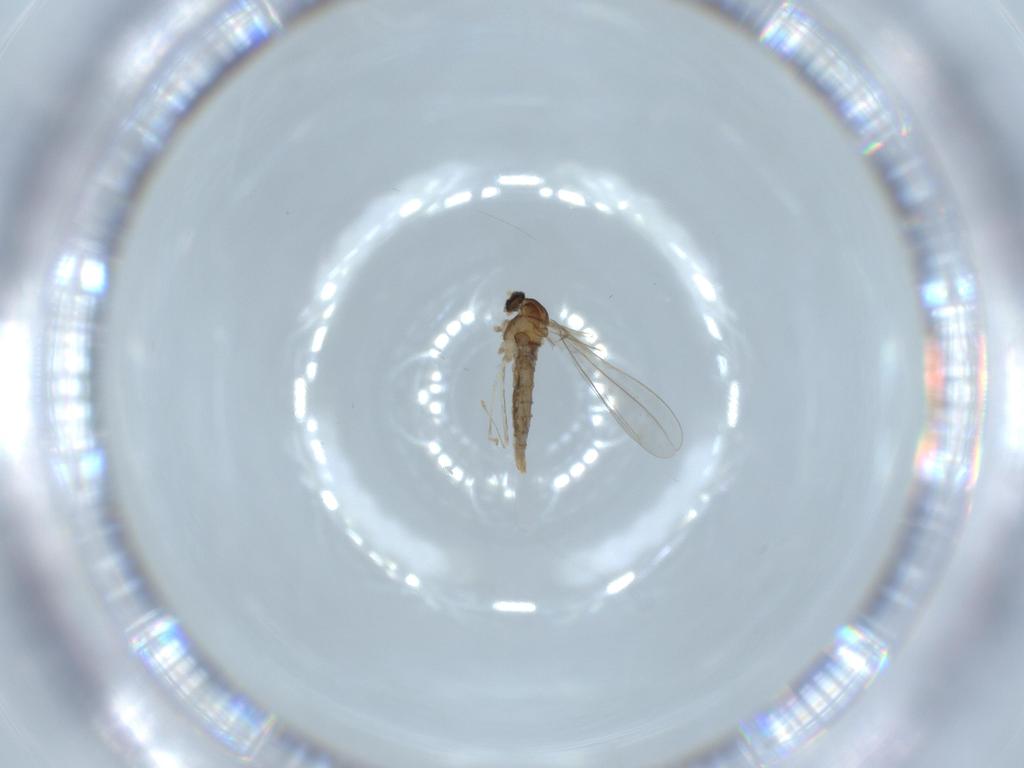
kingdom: Animalia
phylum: Arthropoda
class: Insecta
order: Diptera
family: Cecidomyiidae
